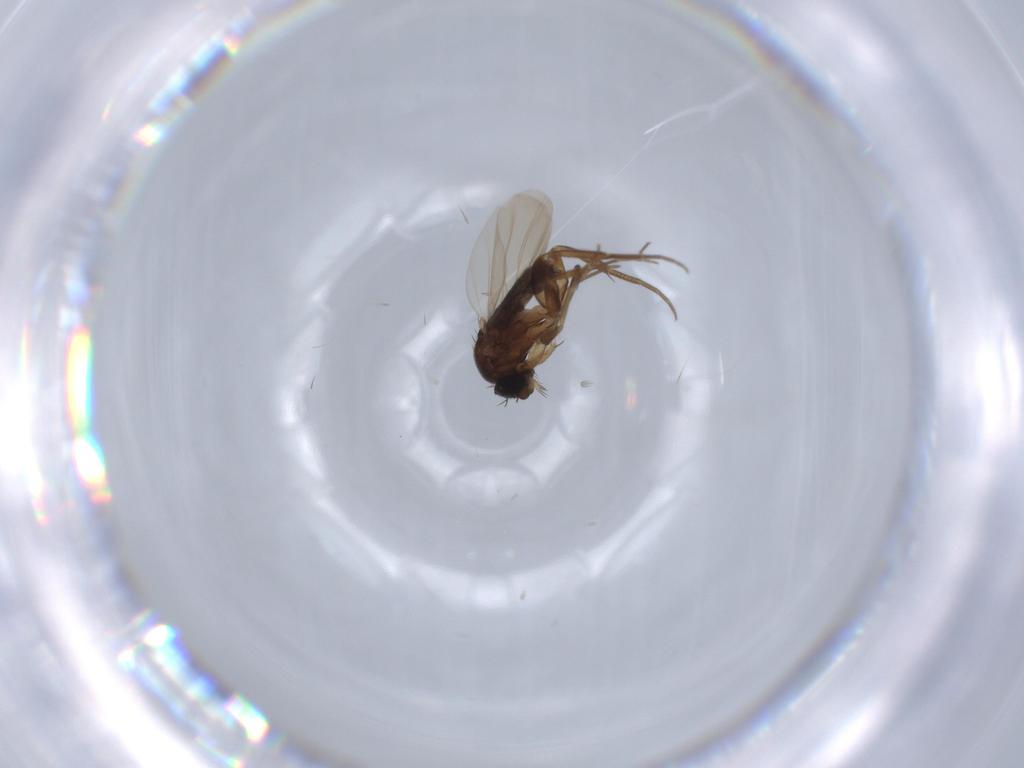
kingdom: Animalia
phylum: Arthropoda
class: Insecta
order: Diptera
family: Phoridae
